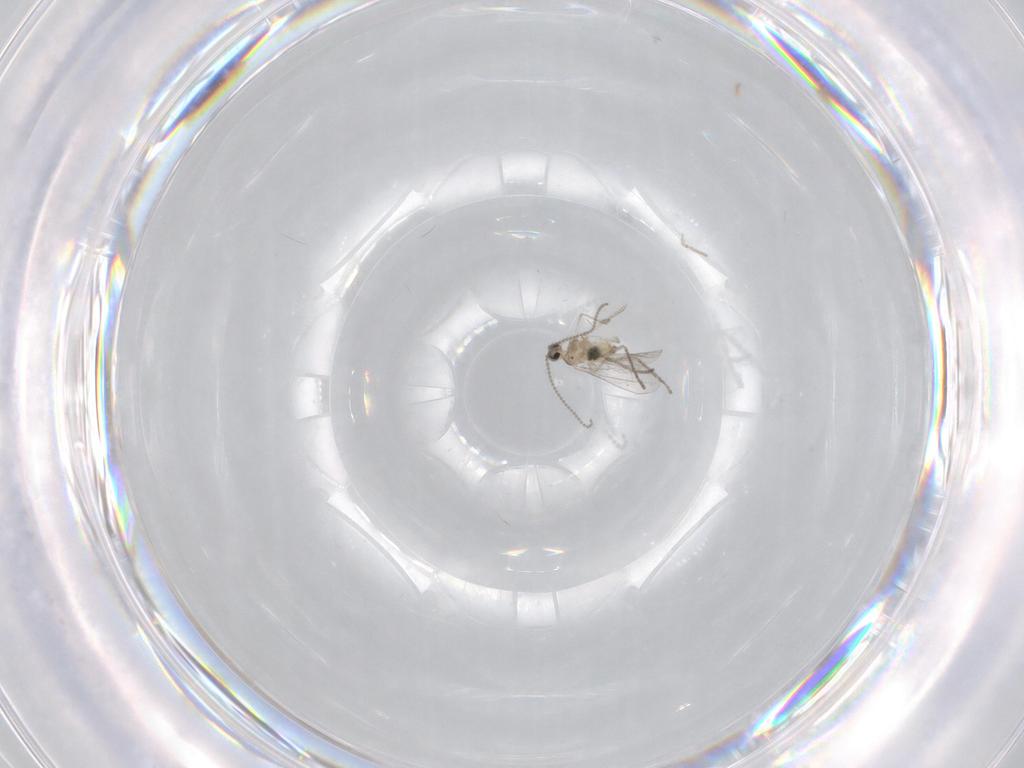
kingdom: Animalia
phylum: Arthropoda
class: Insecta
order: Diptera
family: Cecidomyiidae
